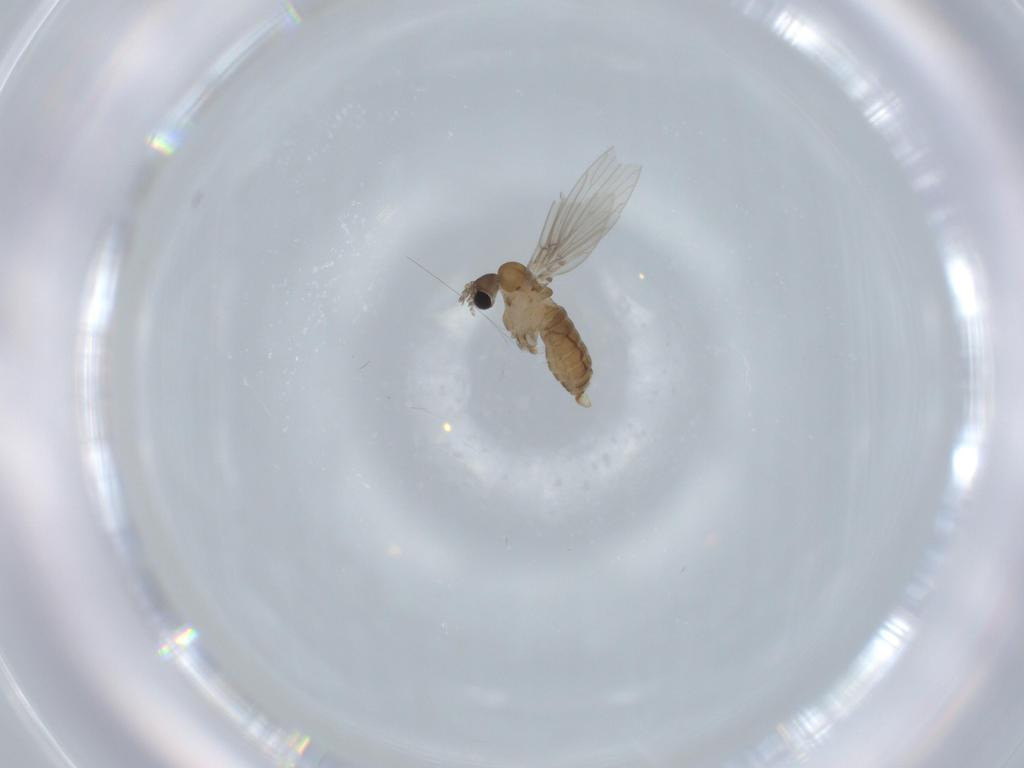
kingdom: Animalia
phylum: Arthropoda
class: Insecta
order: Diptera
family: Psychodidae
